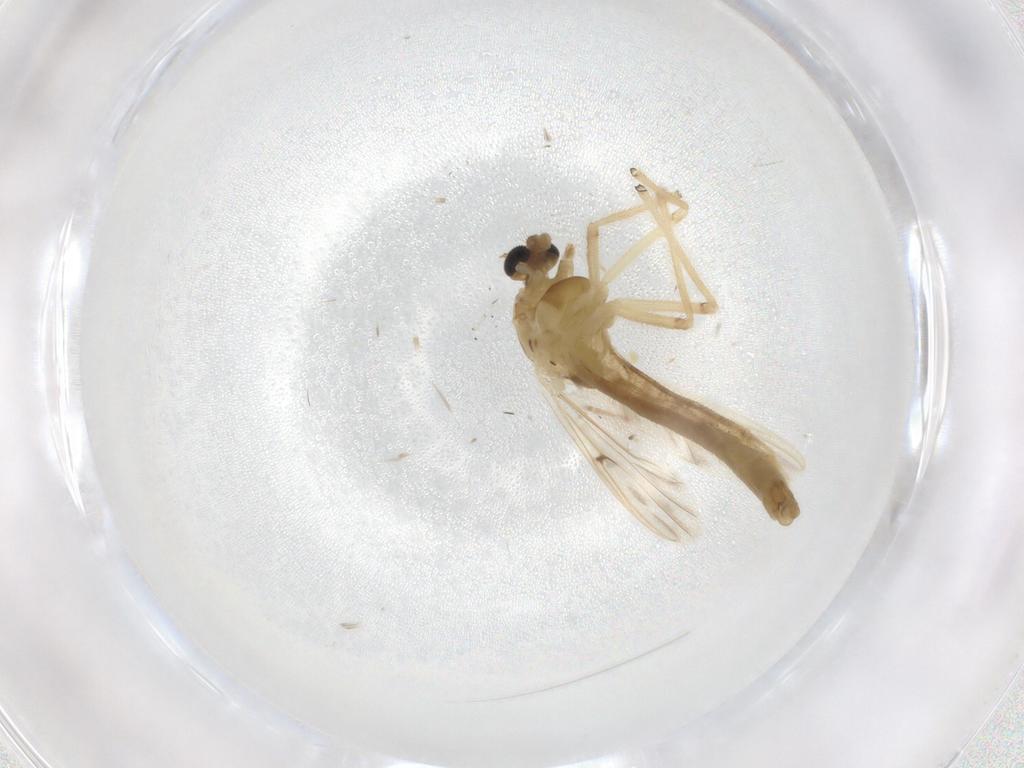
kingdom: Animalia
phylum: Arthropoda
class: Insecta
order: Diptera
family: Chironomidae
